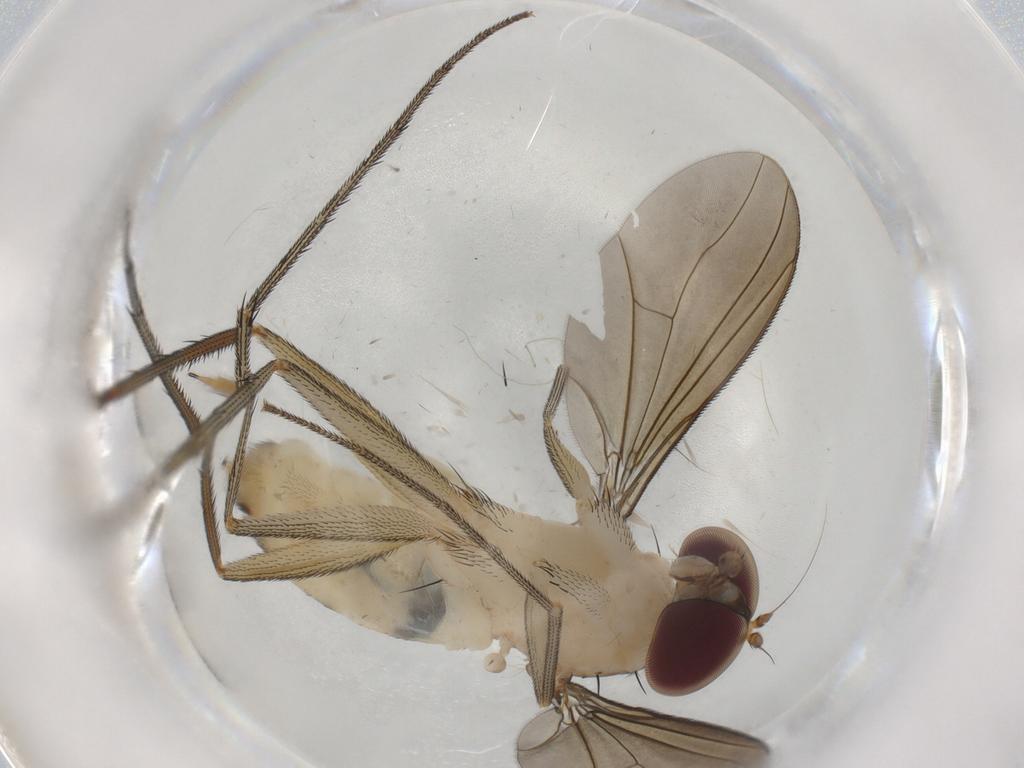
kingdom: Animalia
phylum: Arthropoda
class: Insecta
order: Diptera
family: Dolichopodidae
